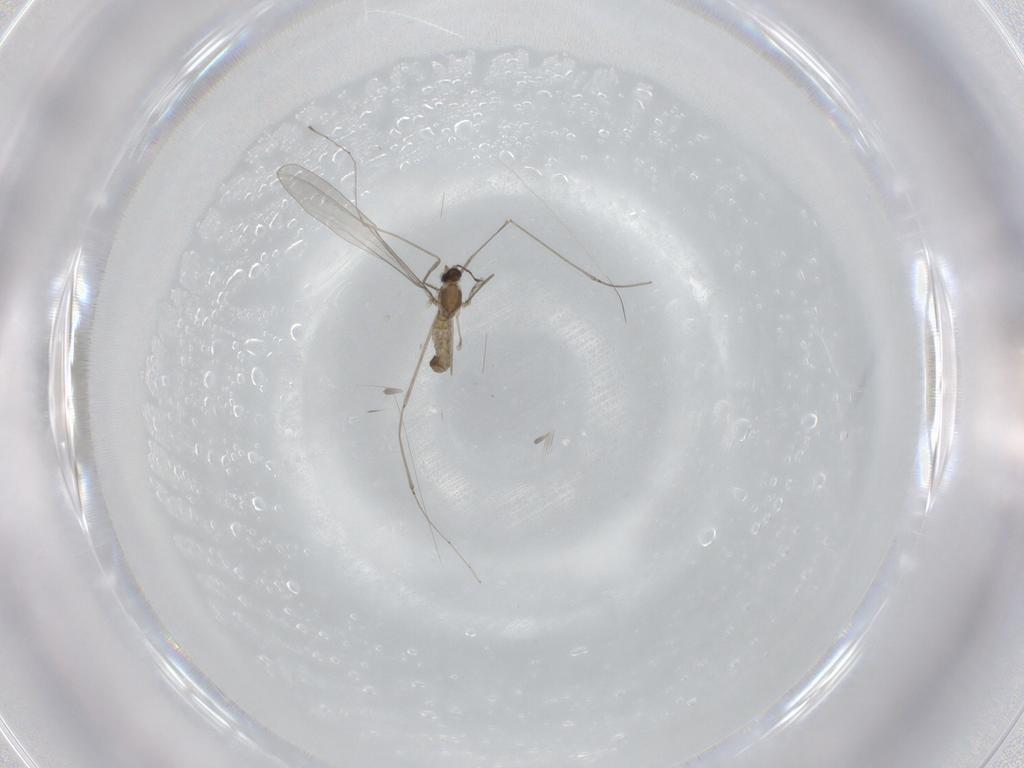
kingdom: Animalia
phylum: Arthropoda
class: Insecta
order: Diptera
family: Cecidomyiidae
